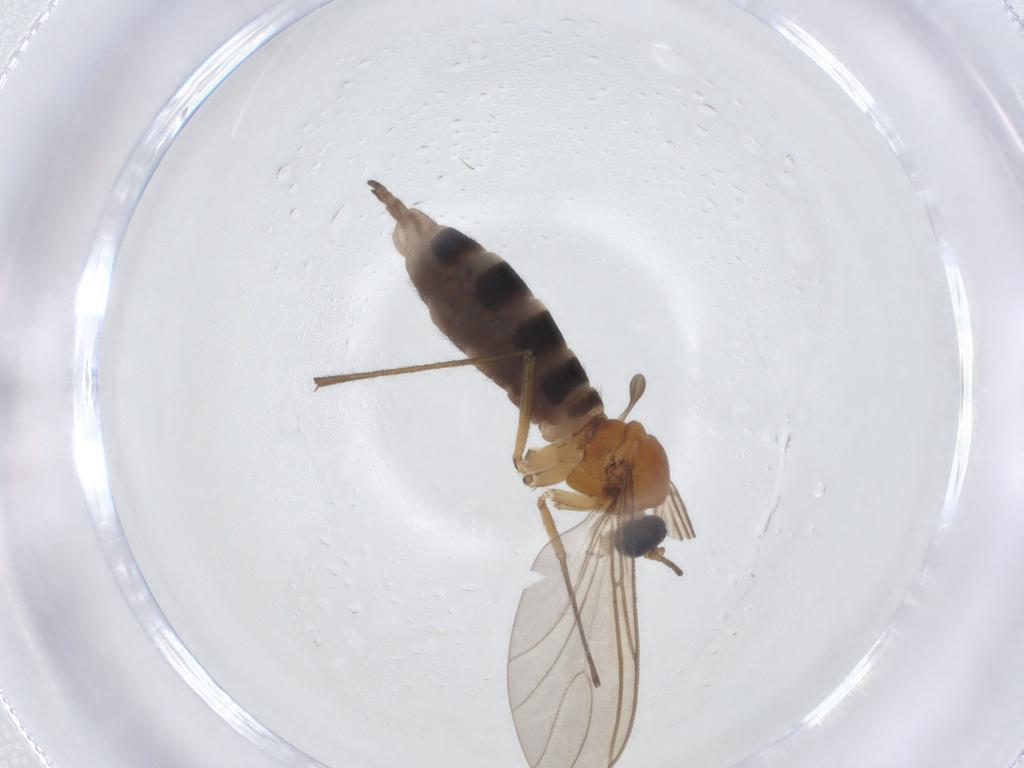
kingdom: Animalia
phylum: Arthropoda
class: Insecta
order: Diptera
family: Sciaridae
